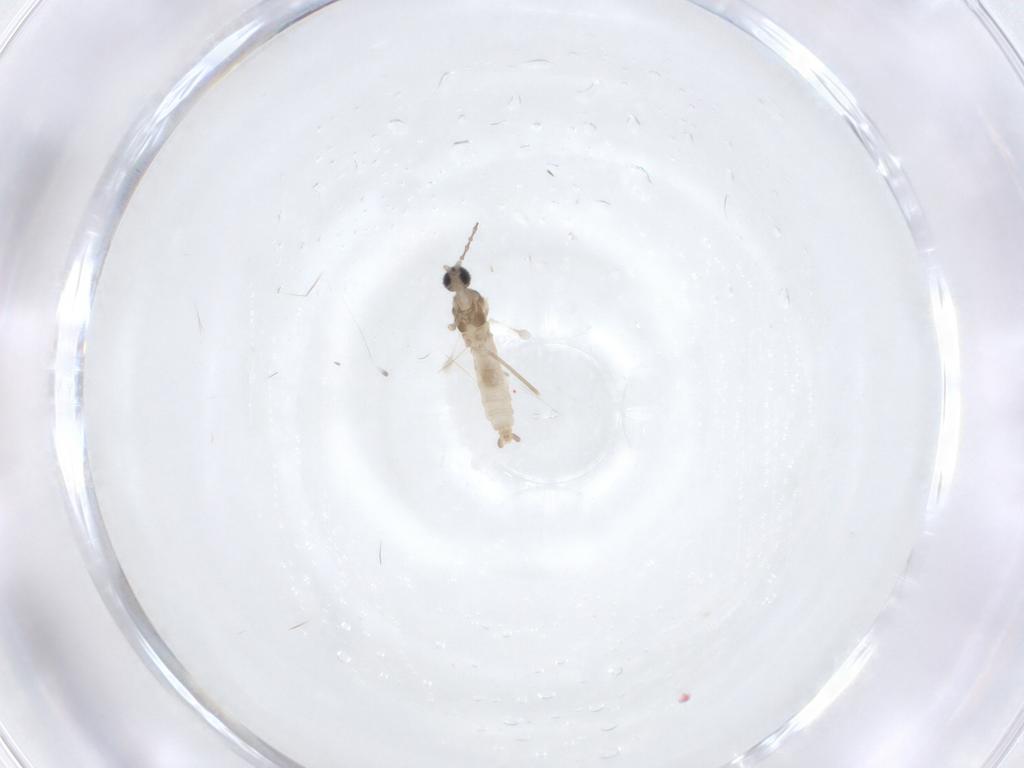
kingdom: Animalia
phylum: Arthropoda
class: Insecta
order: Diptera
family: Cecidomyiidae
